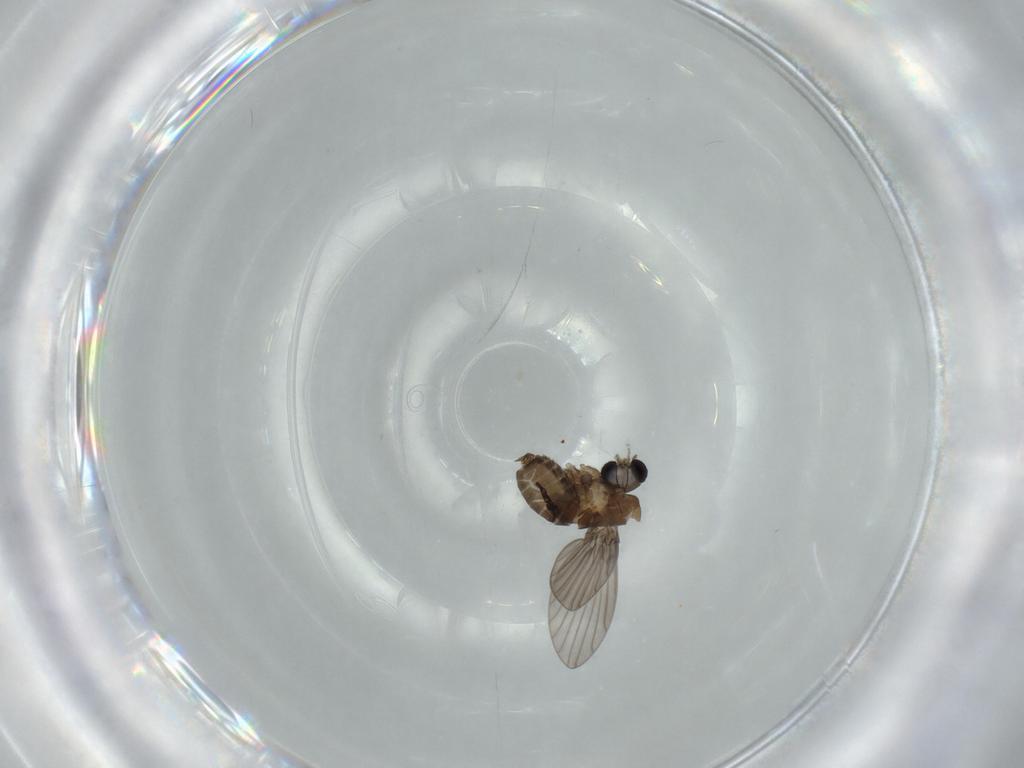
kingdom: Animalia
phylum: Arthropoda
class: Insecta
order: Diptera
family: Psychodidae
